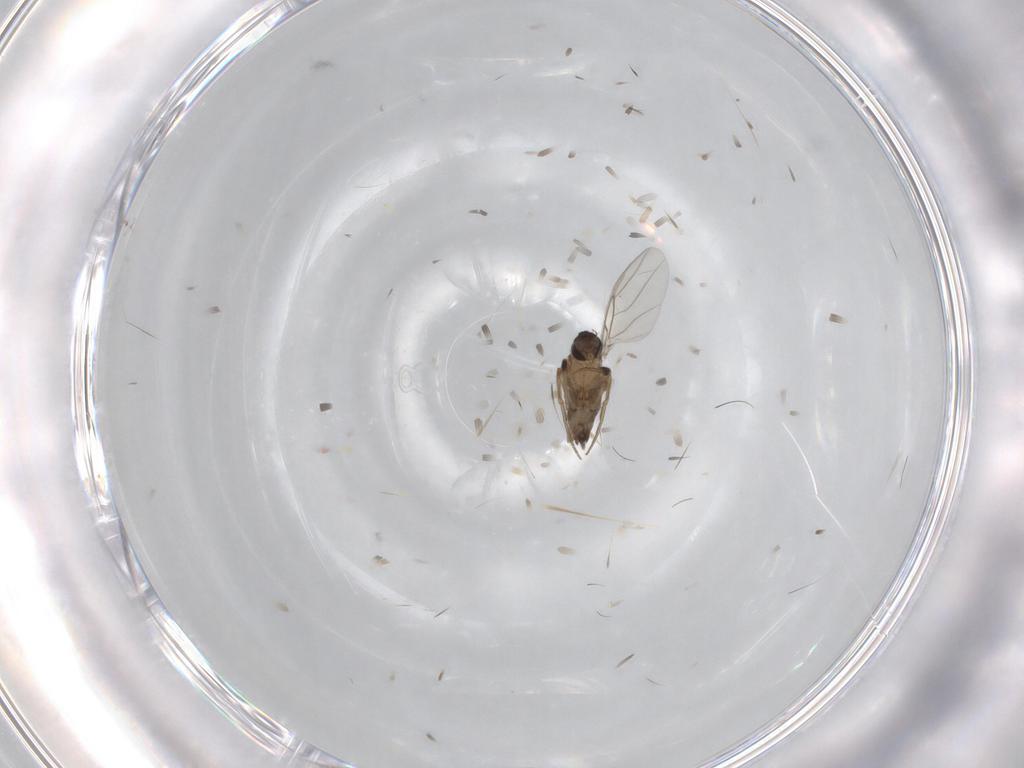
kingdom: Animalia
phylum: Arthropoda
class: Insecta
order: Diptera
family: Phoridae
